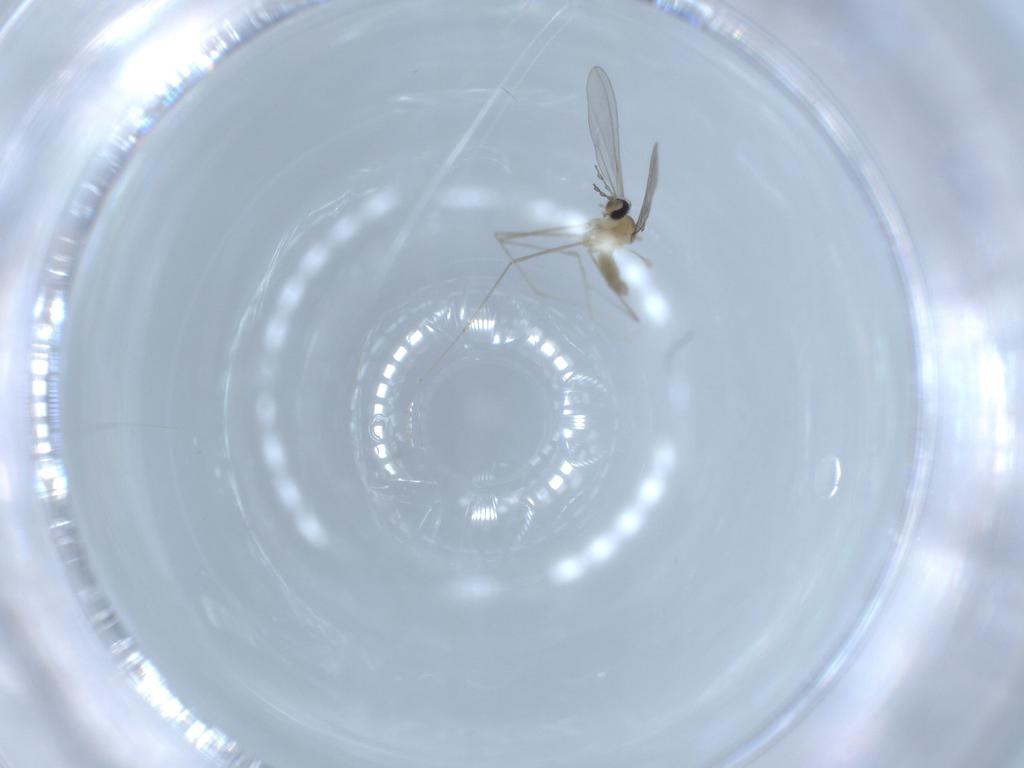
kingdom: Animalia
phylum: Arthropoda
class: Insecta
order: Diptera
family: Cecidomyiidae
